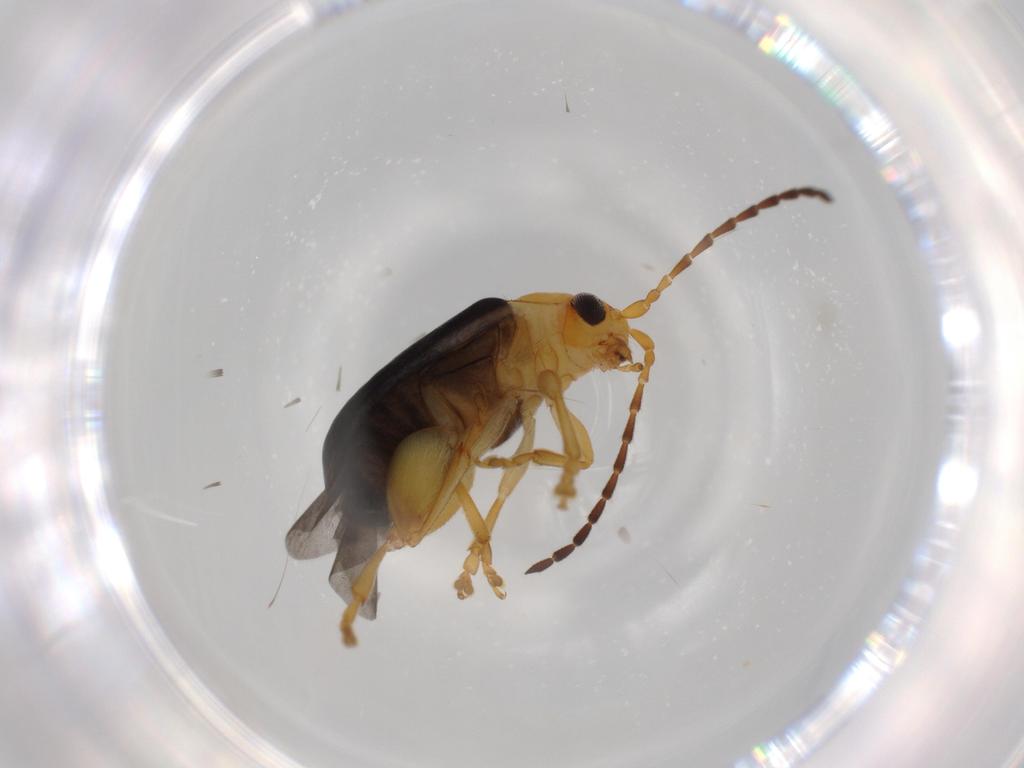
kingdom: Animalia
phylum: Arthropoda
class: Insecta
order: Coleoptera
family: Chrysomelidae
